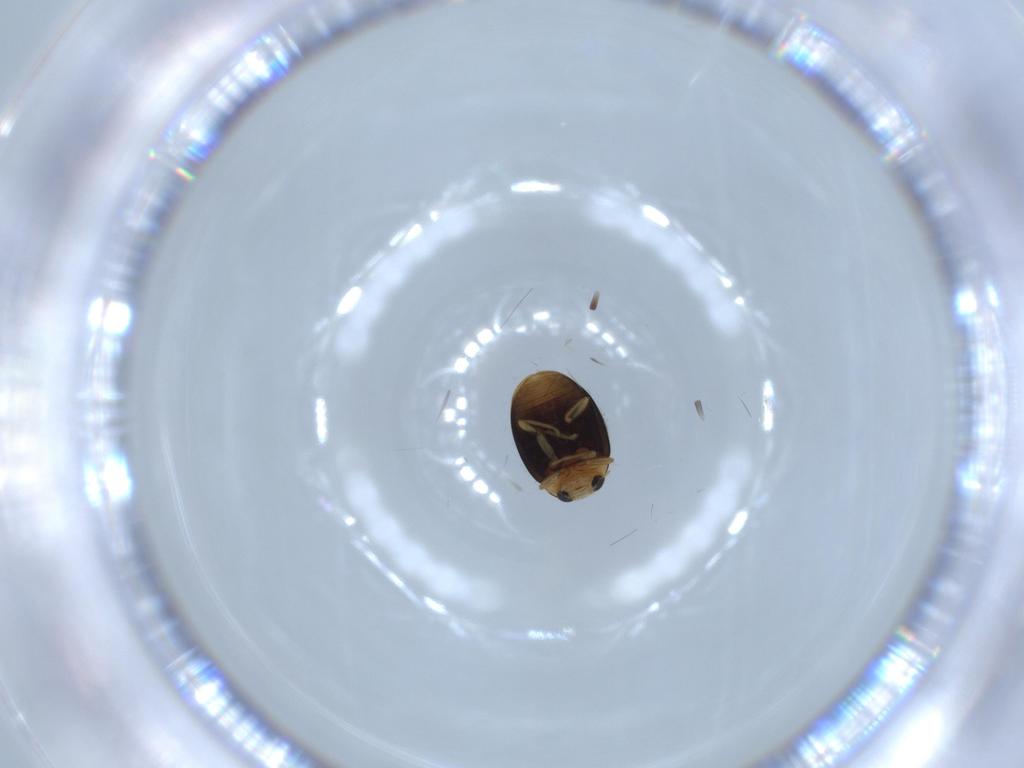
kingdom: Animalia
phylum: Arthropoda
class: Insecta
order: Coleoptera
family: Coccinellidae
